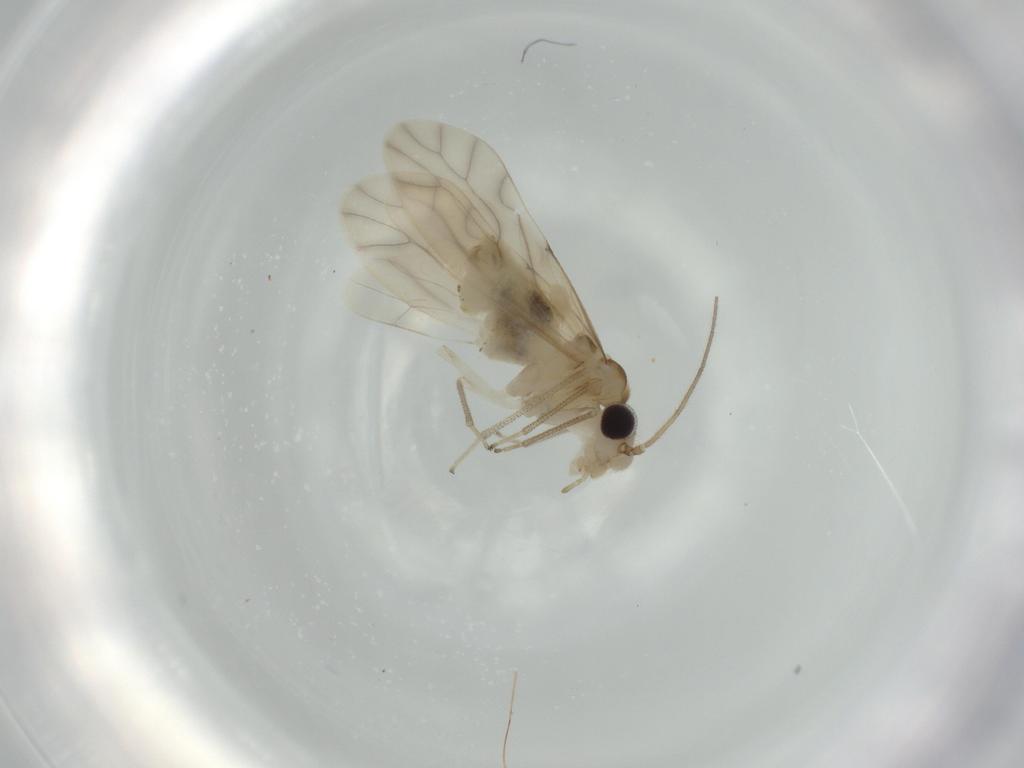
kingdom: Animalia
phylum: Arthropoda
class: Insecta
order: Psocodea
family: Caeciliusidae
